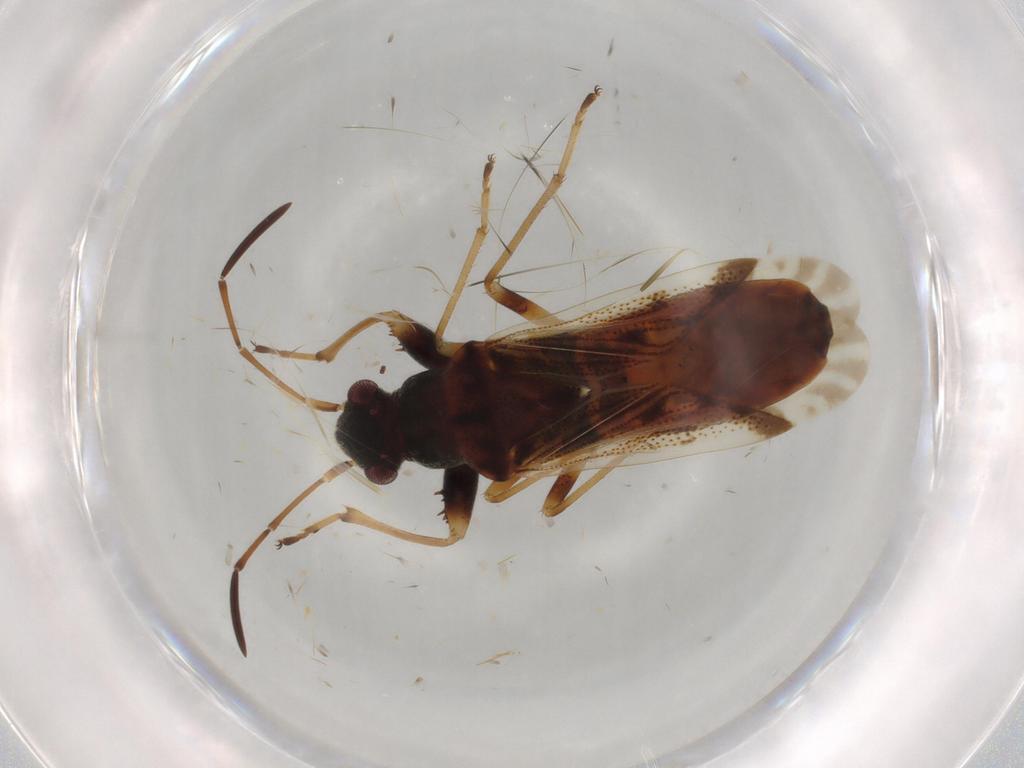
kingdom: Animalia
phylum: Arthropoda
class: Insecta
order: Hemiptera
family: Rhyparochromidae
